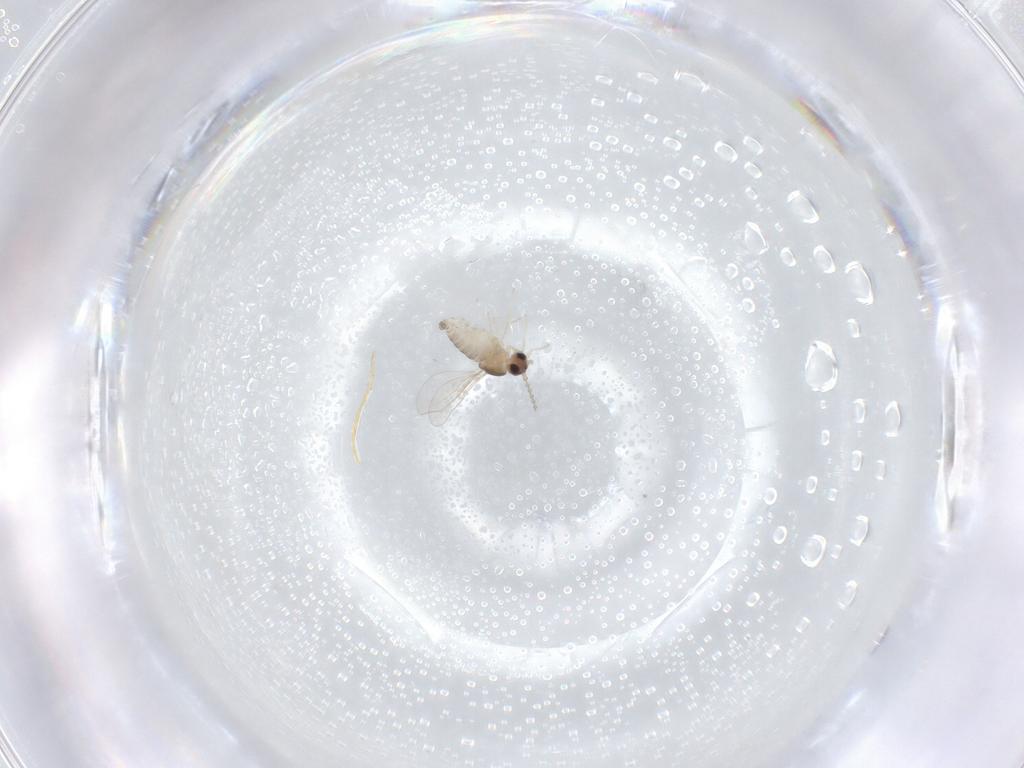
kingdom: Animalia
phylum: Arthropoda
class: Insecta
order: Diptera
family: Cecidomyiidae
